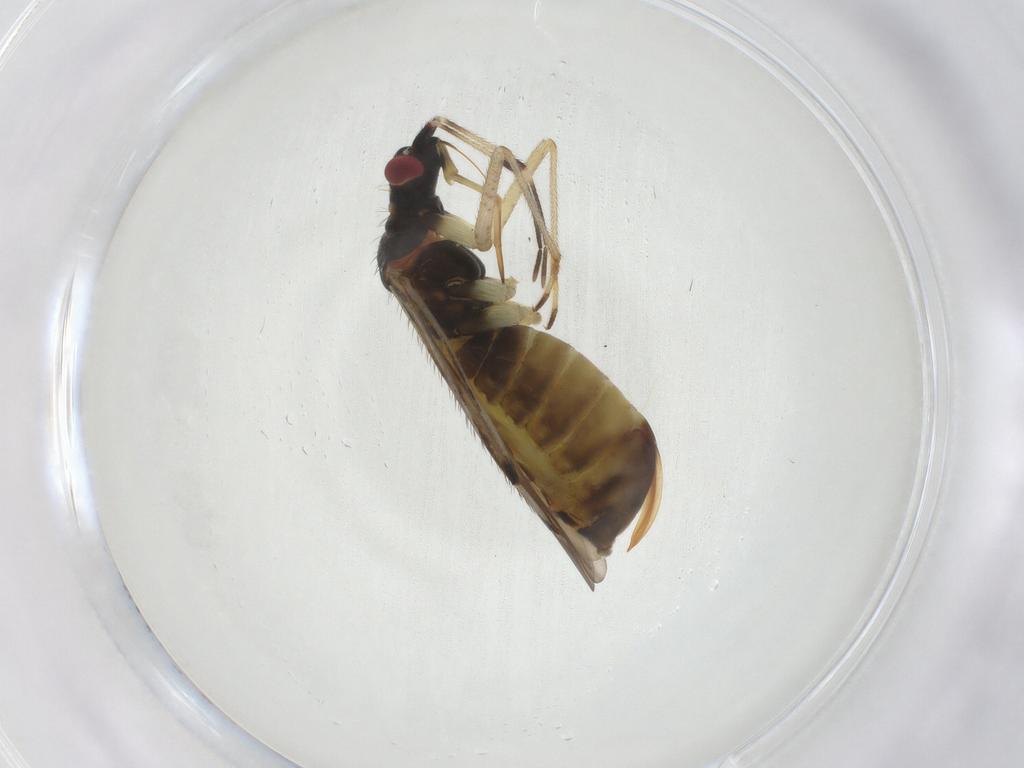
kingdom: Animalia
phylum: Arthropoda
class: Insecta
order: Hemiptera
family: Miridae
